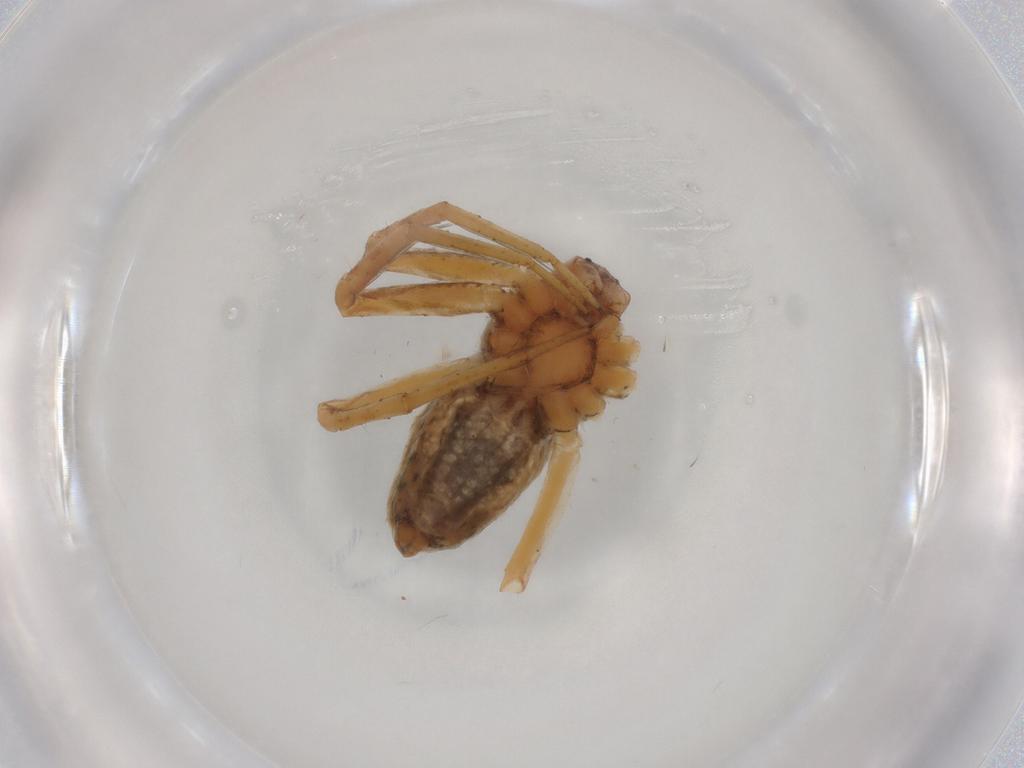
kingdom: Animalia
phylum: Arthropoda
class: Arachnida
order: Araneae
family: Pisauridae
